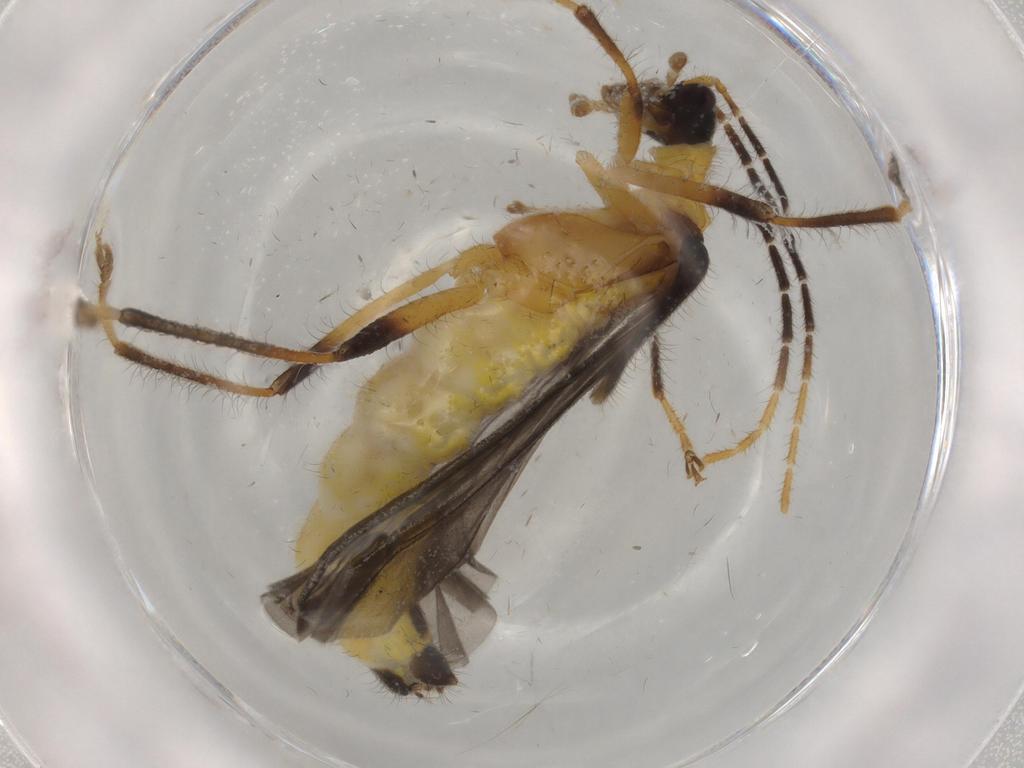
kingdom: Animalia
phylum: Arthropoda
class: Insecta
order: Coleoptera
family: Cantharidae
